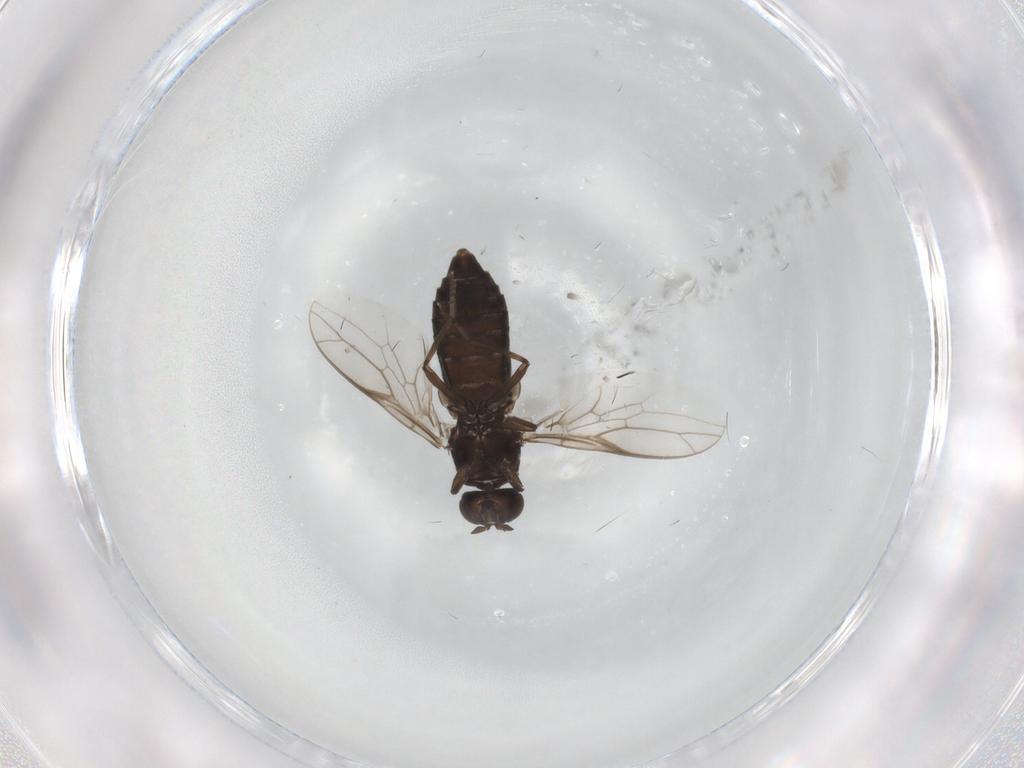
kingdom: Animalia
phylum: Arthropoda
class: Insecta
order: Diptera
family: Scenopinidae
